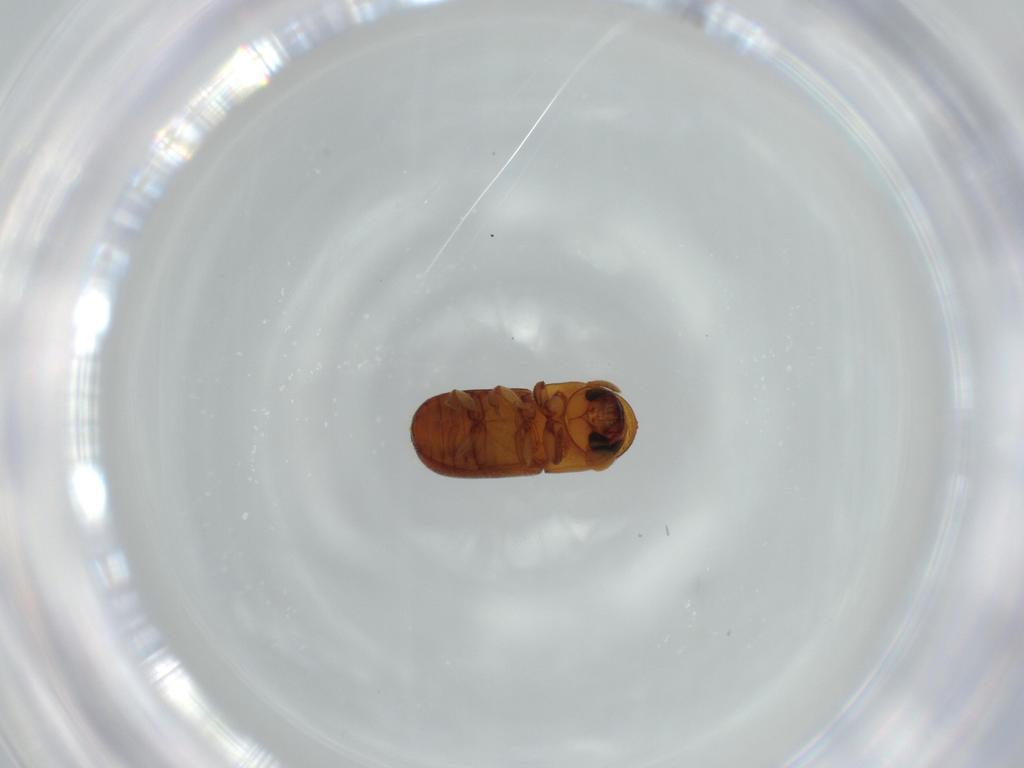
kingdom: Animalia
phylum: Arthropoda
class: Insecta
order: Coleoptera
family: Curculionidae
